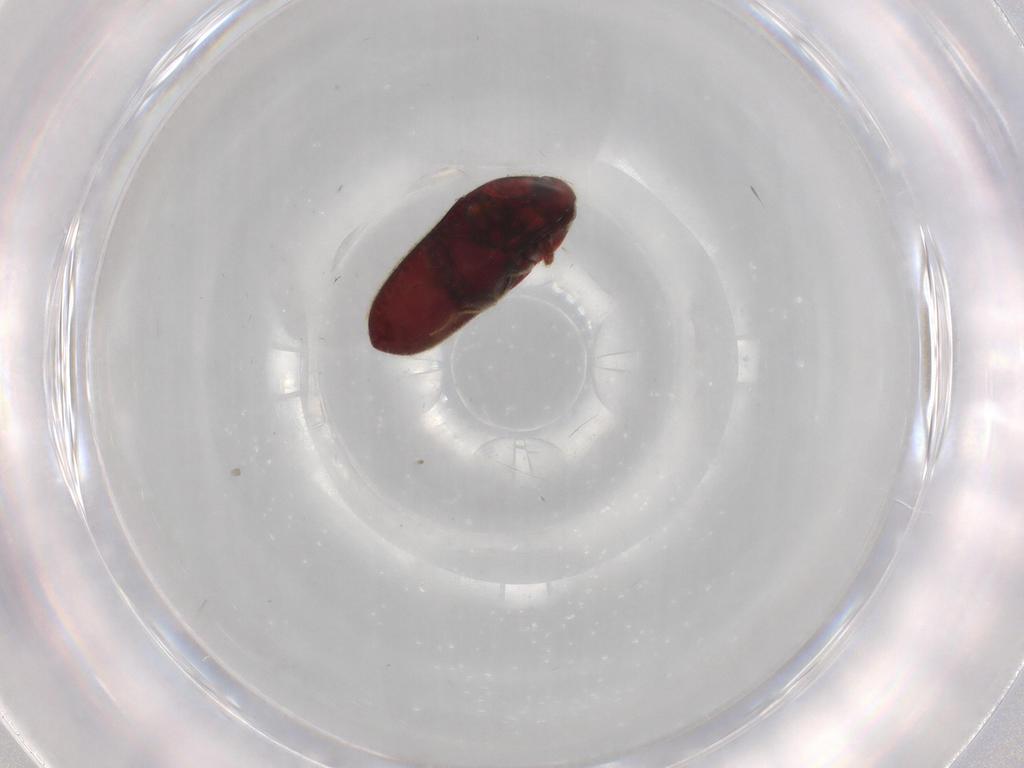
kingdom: Animalia
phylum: Arthropoda
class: Insecta
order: Coleoptera
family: Throscidae
